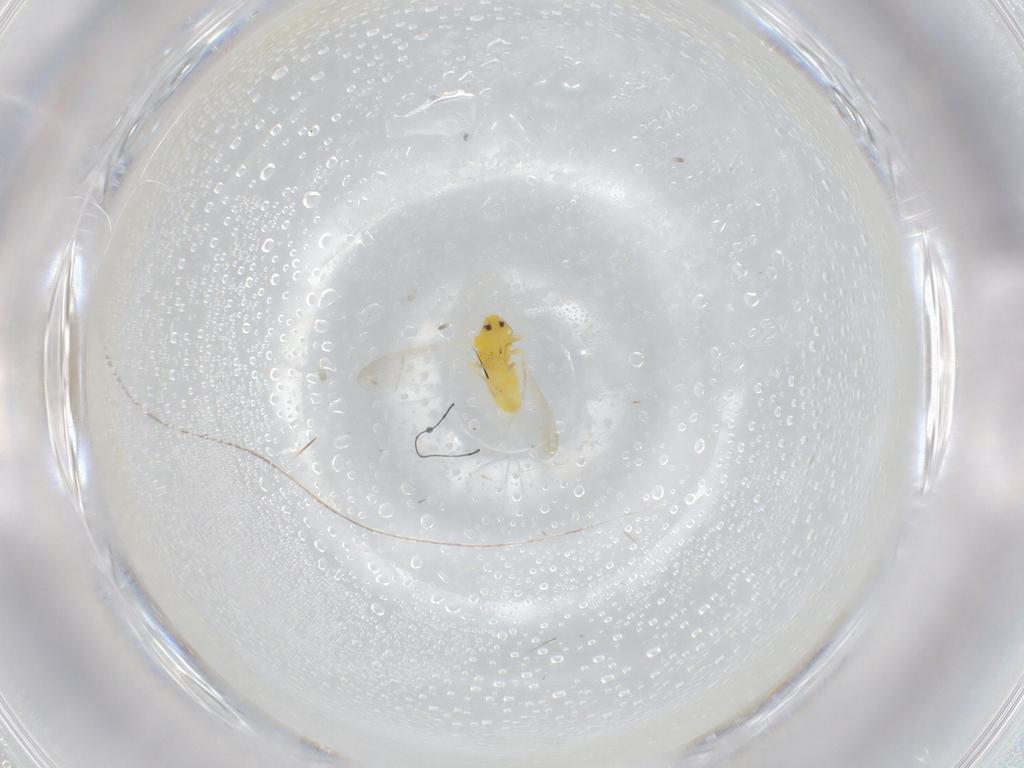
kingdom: Animalia
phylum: Arthropoda
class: Insecta
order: Hemiptera
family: Aleyrodidae
